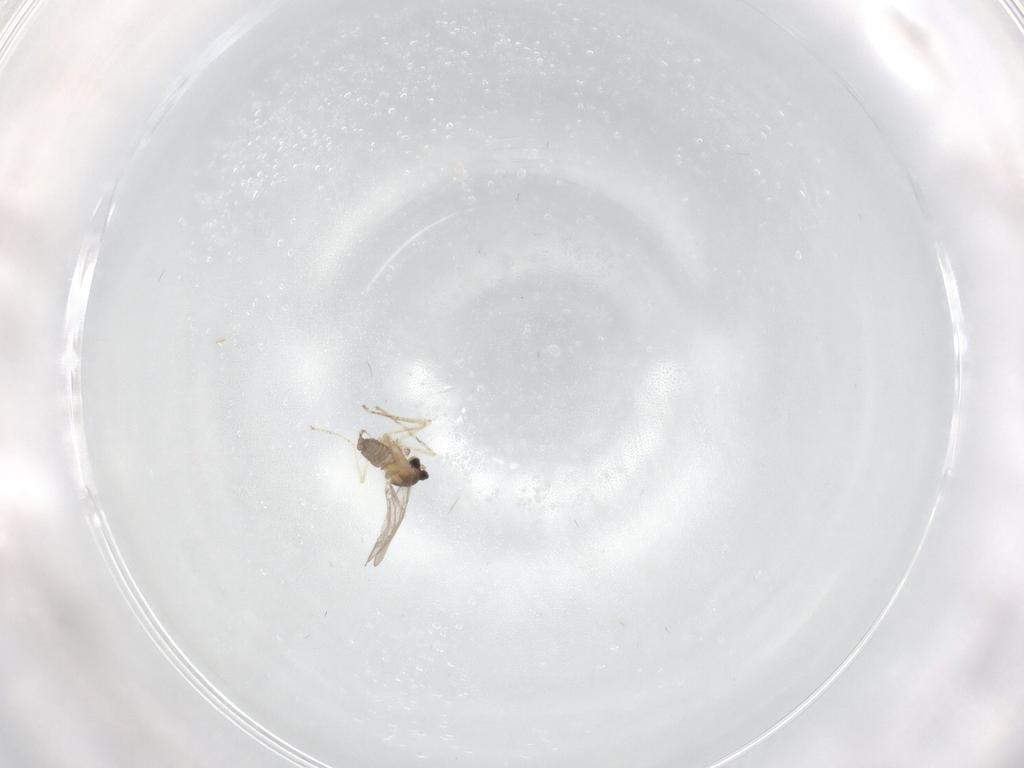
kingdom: Animalia
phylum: Arthropoda
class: Insecta
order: Diptera
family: Cecidomyiidae
